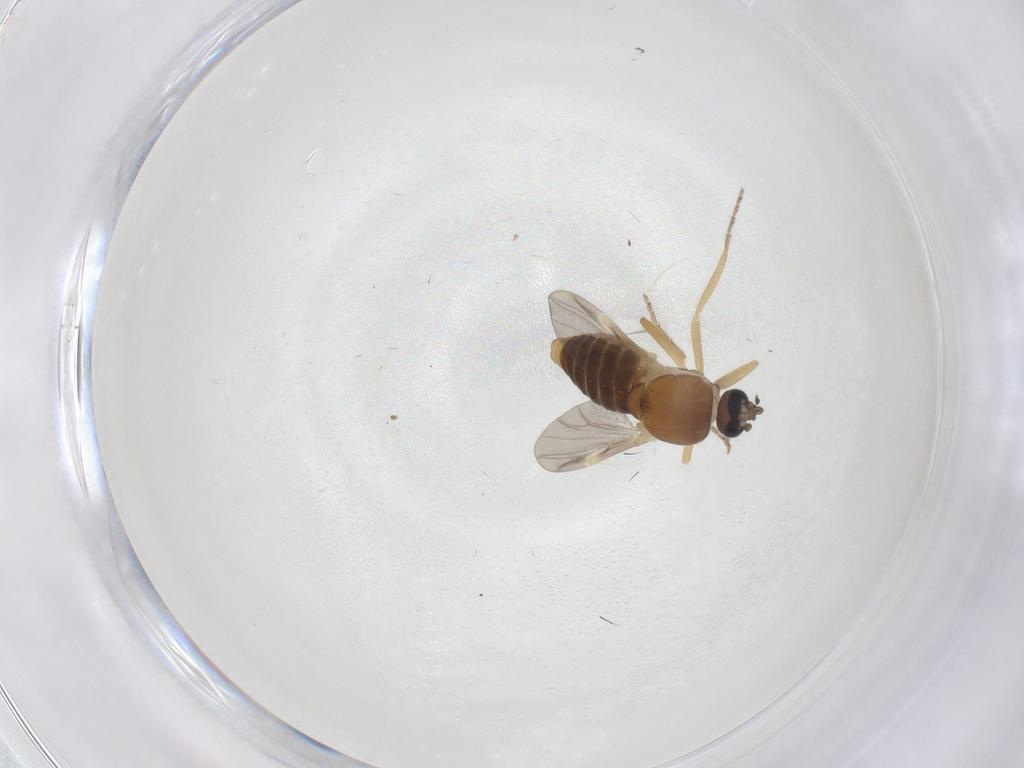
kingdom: Animalia
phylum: Arthropoda
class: Insecta
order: Diptera
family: Ceratopogonidae
